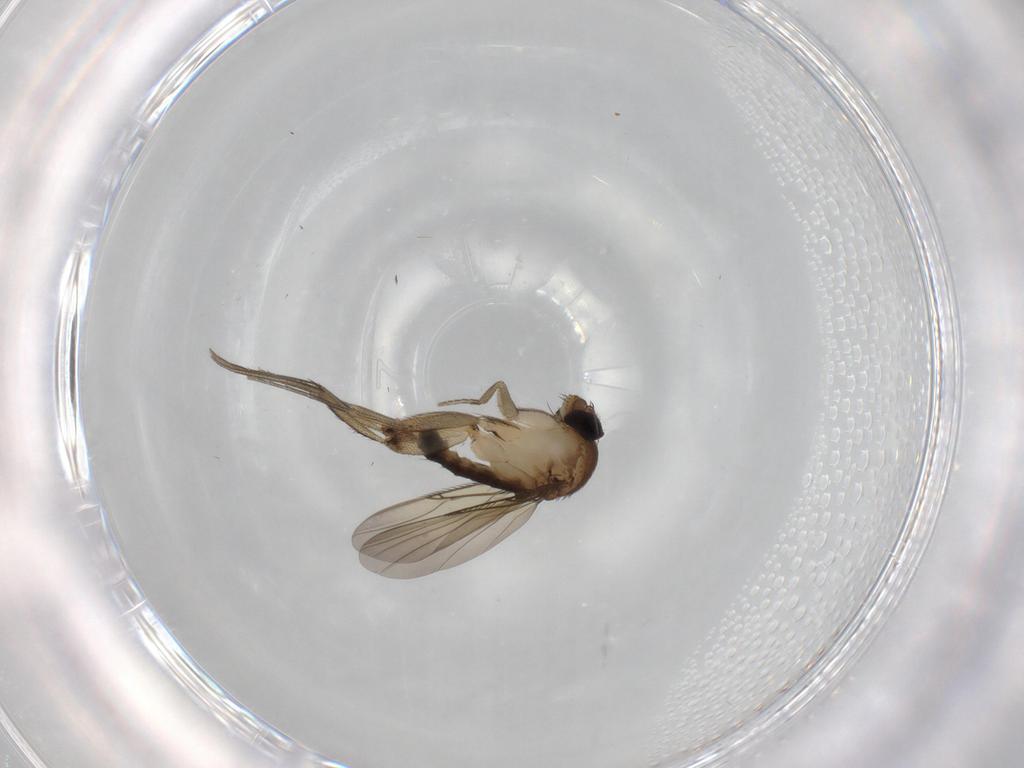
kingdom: Animalia
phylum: Arthropoda
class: Insecta
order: Diptera
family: Phoridae
